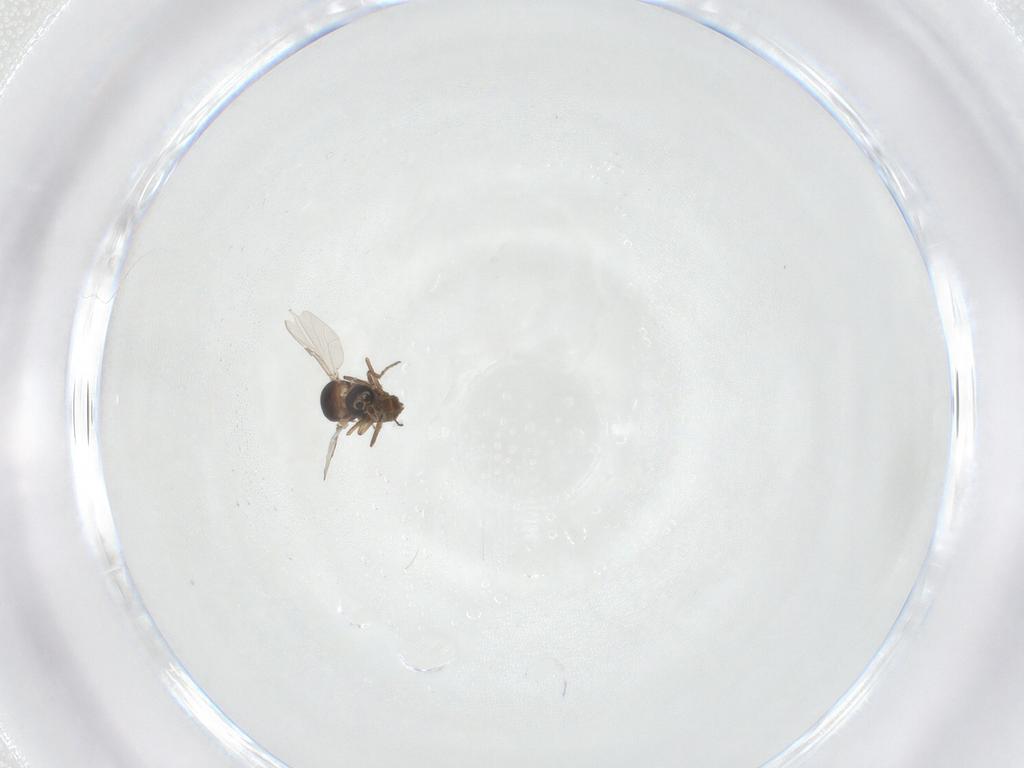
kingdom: Animalia
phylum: Arthropoda
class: Insecta
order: Diptera
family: Ceratopogonidae
